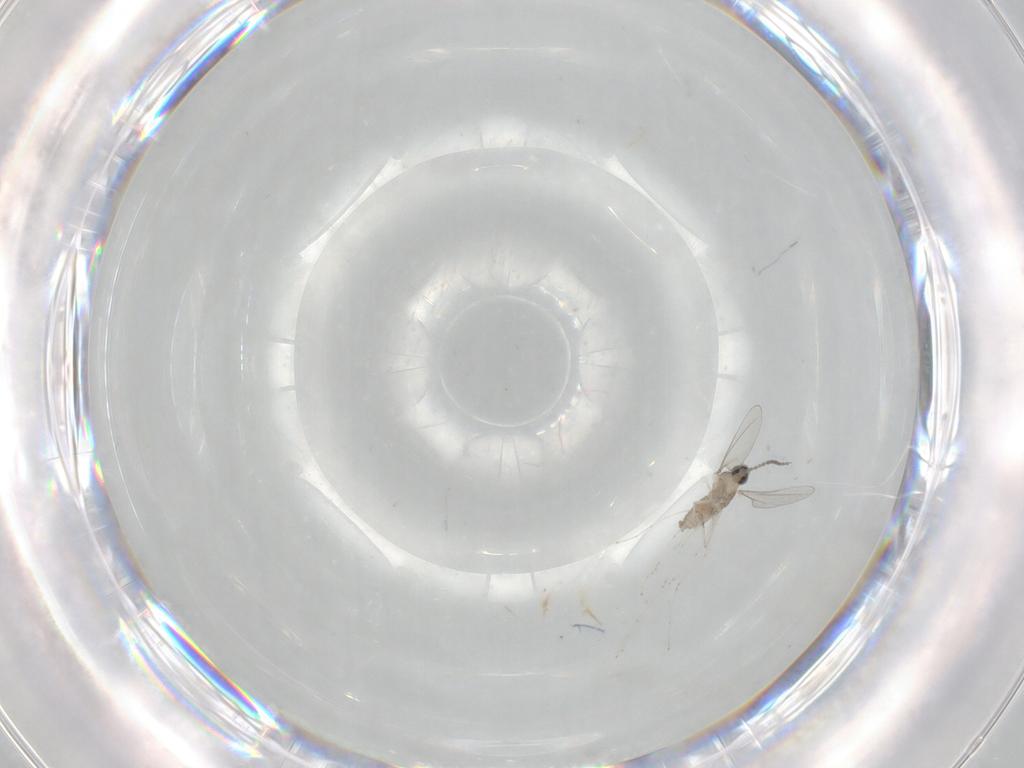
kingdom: Animalia
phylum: Arthropoda
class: Insecta
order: Diptera
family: Cecidomyiidae
